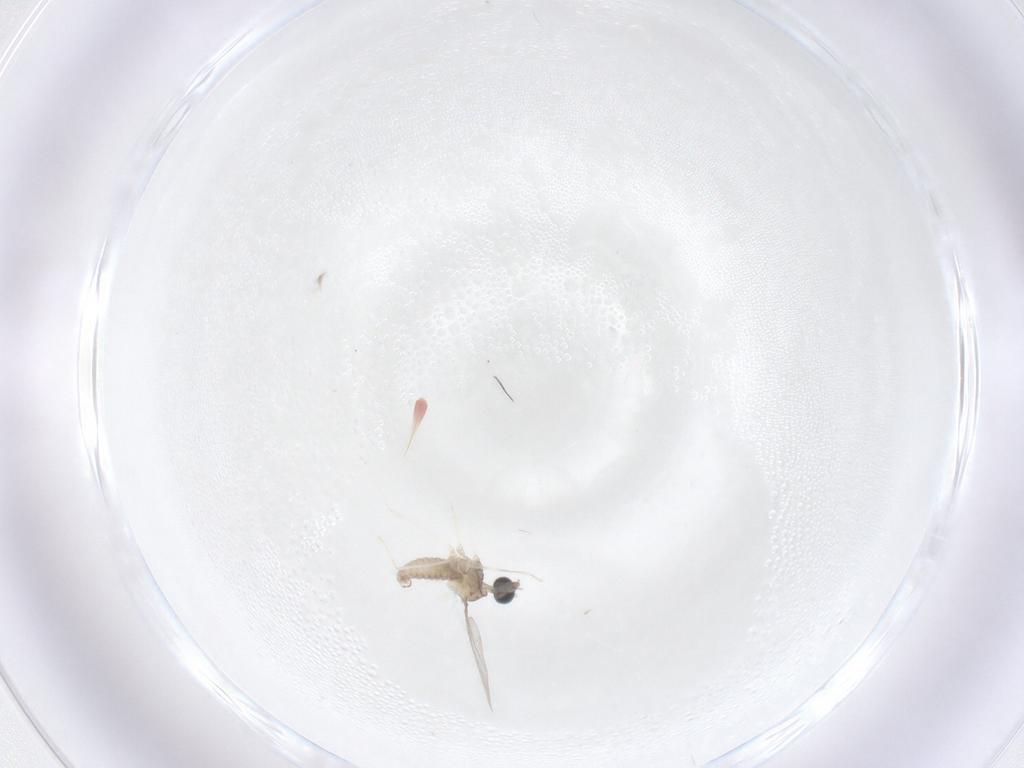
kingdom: Animalia
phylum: Arthropoda
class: Insecta
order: Diptera
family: Cecidomyiidae
